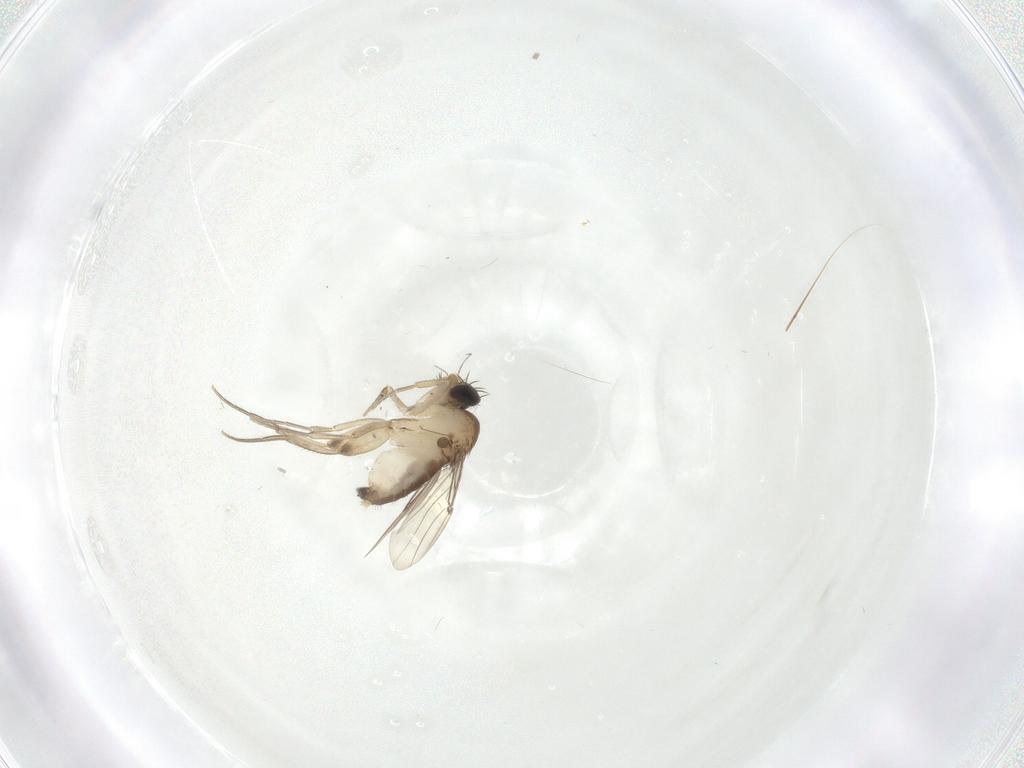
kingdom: Animalia
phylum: Arthropoda
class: Insecta
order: Diptera
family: Phoridae
